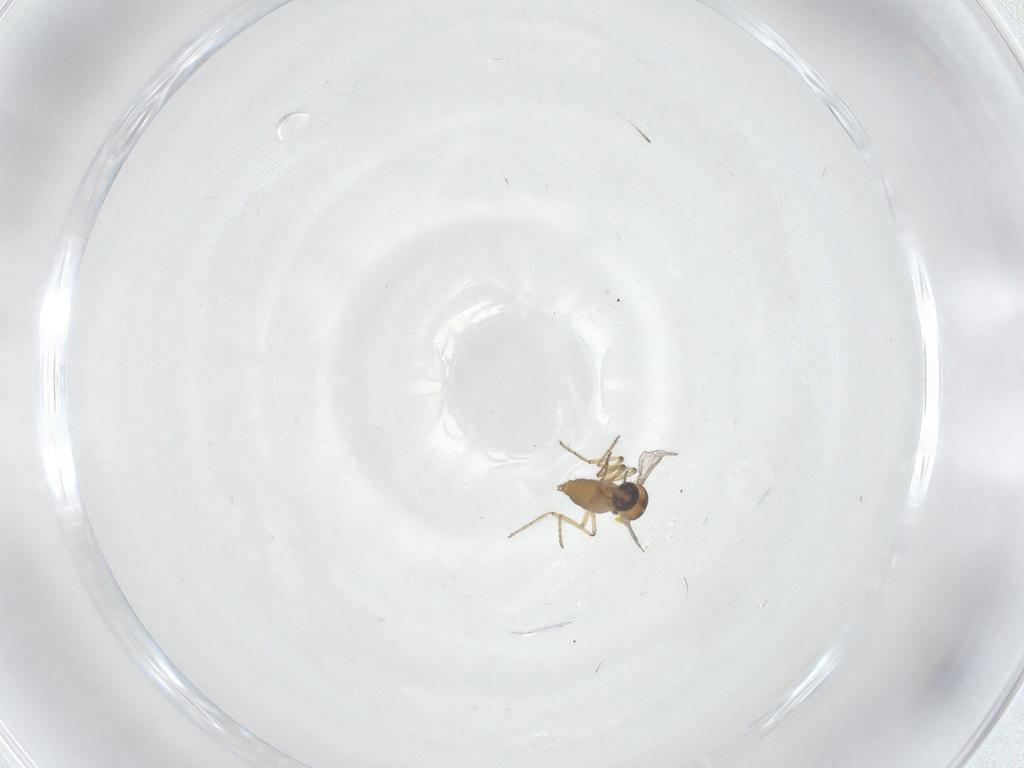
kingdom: Animalia
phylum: Arthropoda
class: Insecta
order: Diptera
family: Ceratopogonidae
